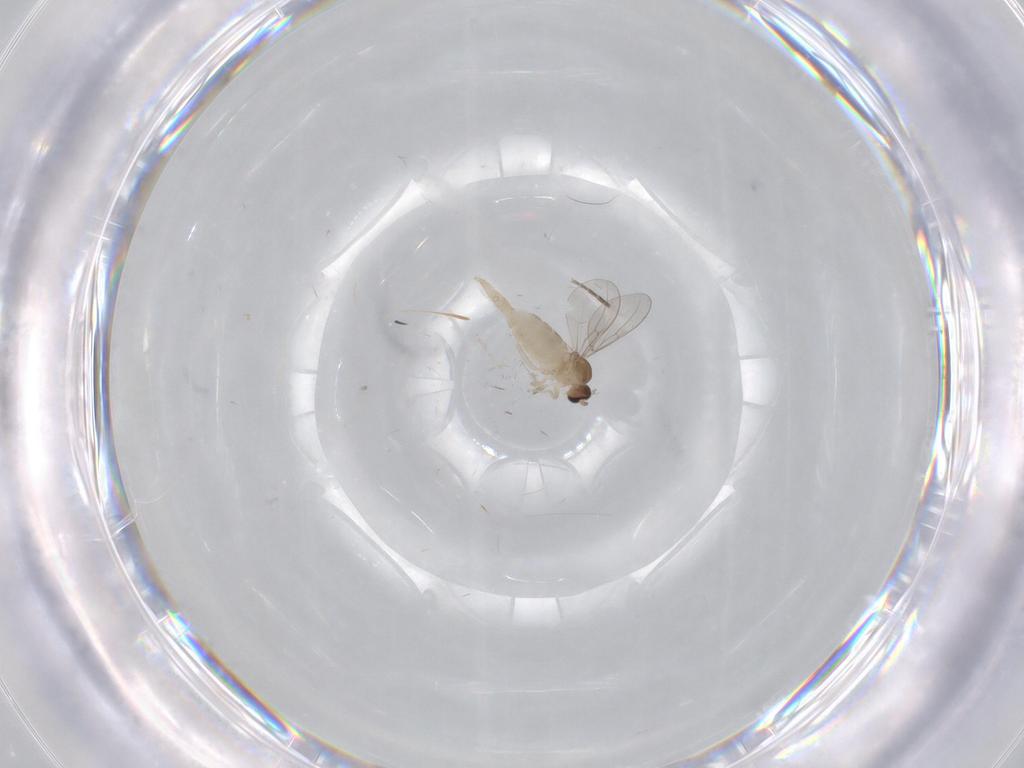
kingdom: Animalia
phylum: Arthropoda
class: Insecta
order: Diptera
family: Cecidomyiidae
